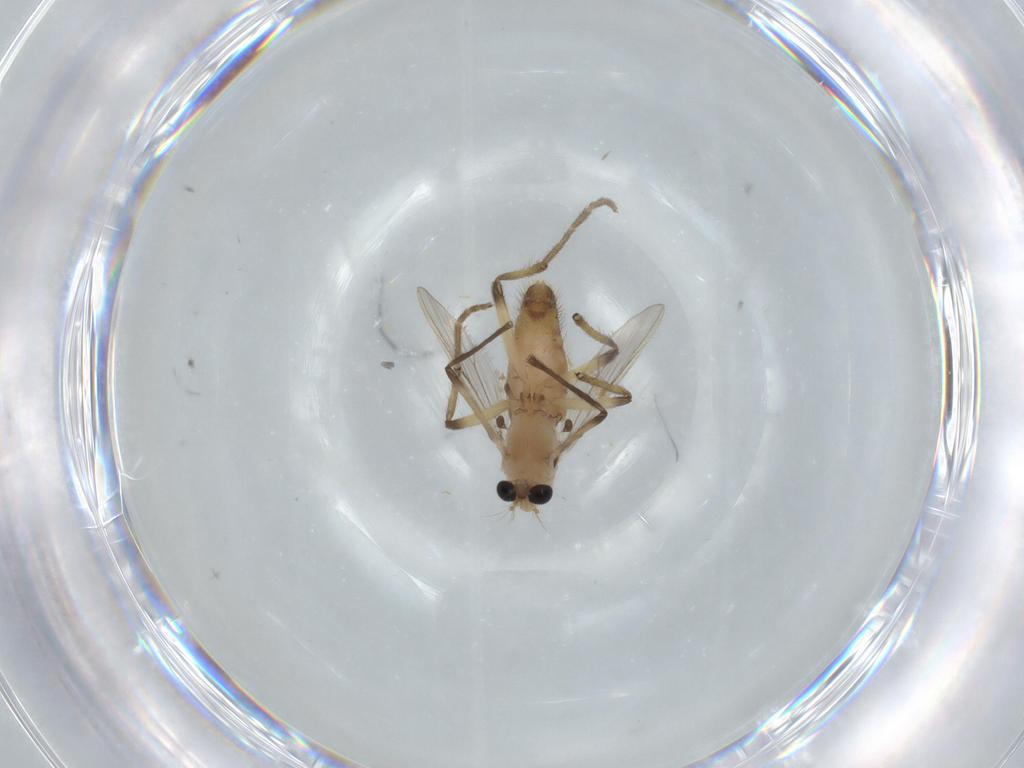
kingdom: Animalia
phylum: Arthropoda
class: Insecta
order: Diptera
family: Chironomidae
